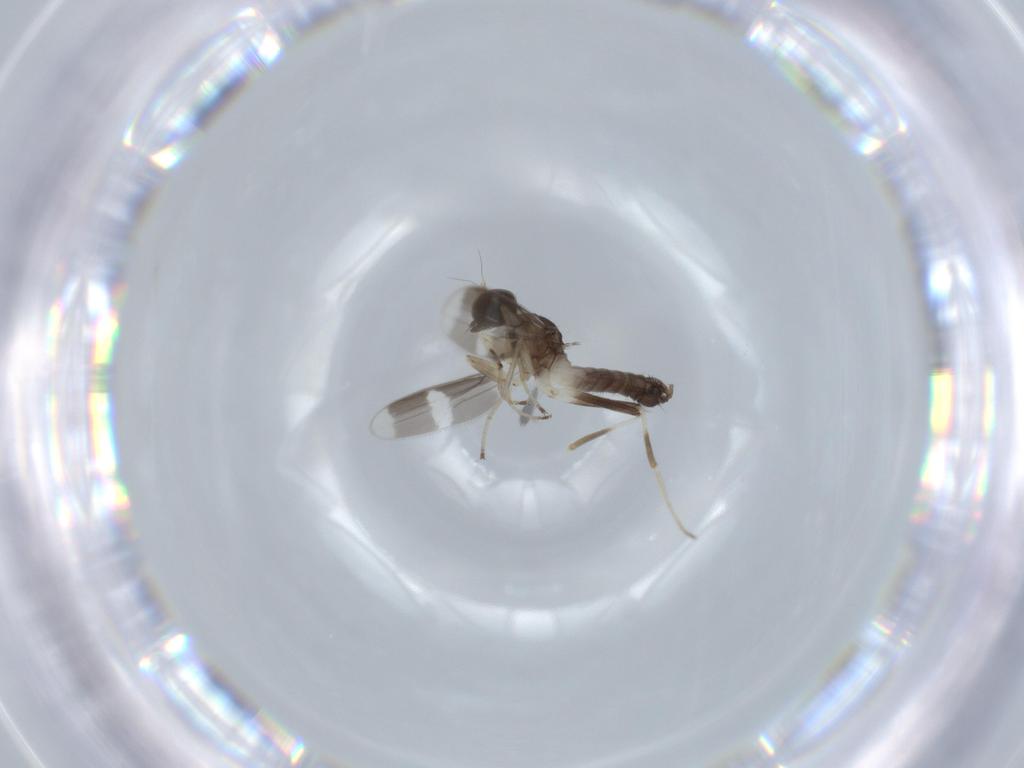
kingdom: Animalia
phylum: Arthropoda
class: Insecta
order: Diptera
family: Hybotidae
